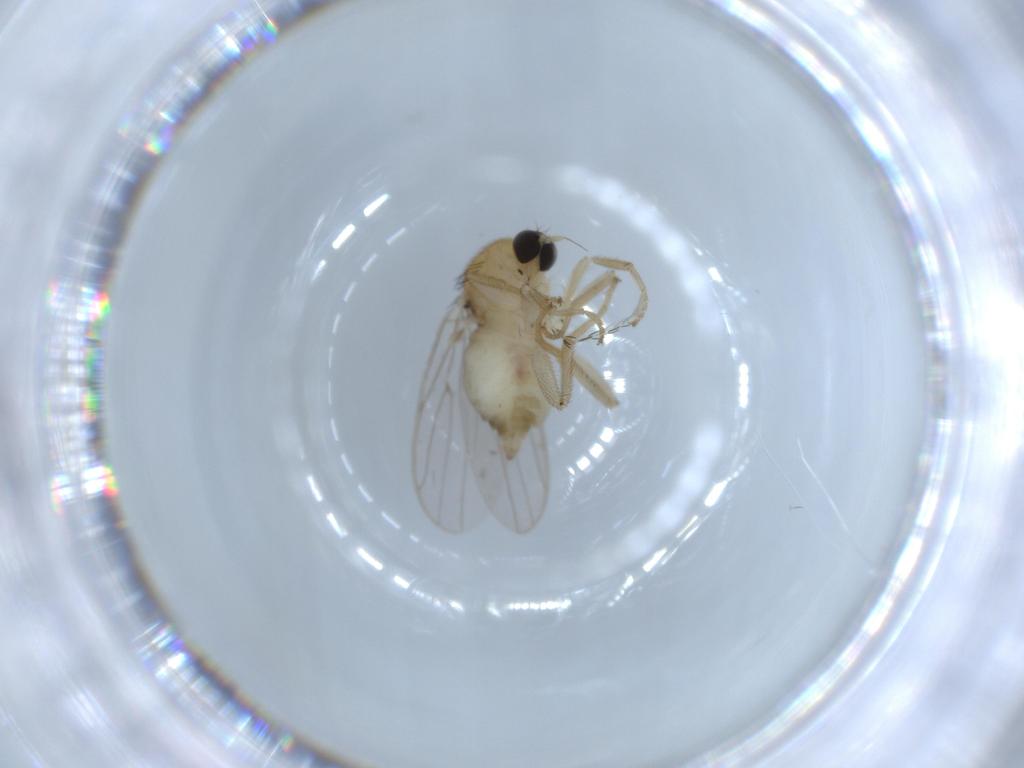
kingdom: Animalia
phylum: Arthropoda
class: Insecta
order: Diptera
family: Hybotidae
